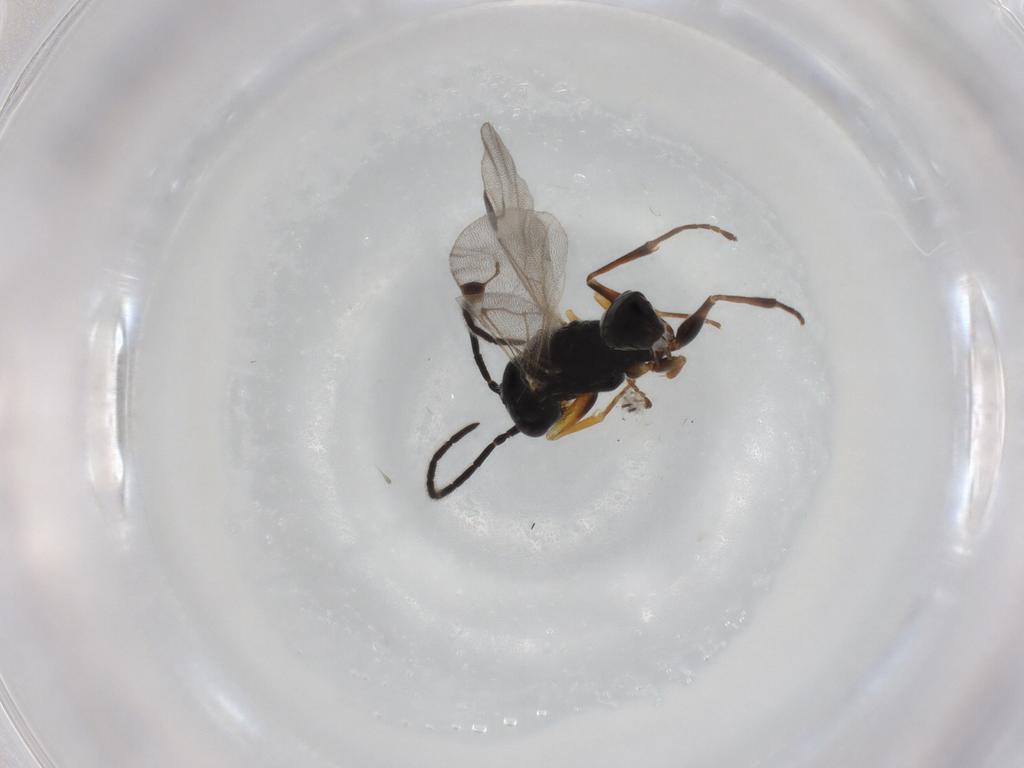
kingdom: Animalia
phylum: Arthropoda
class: Insecta
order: Hymenoptera
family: Dryinidae
